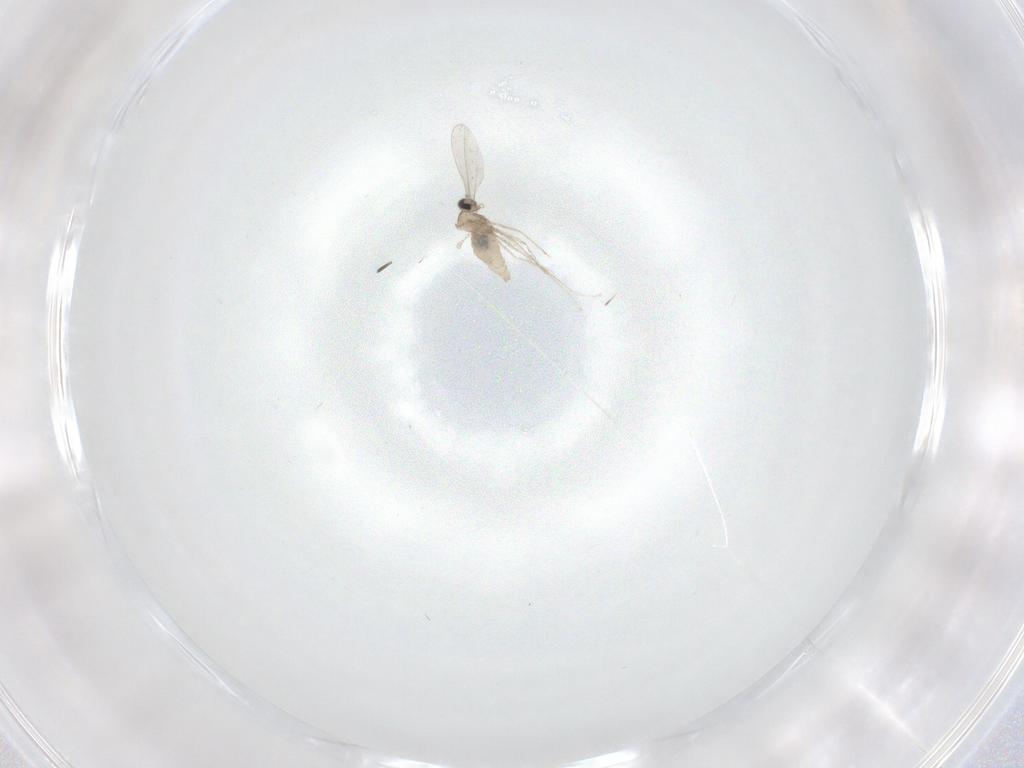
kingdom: Animalia
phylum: Arthropoda
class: Insecta
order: Diptera
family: Cecidomyiidae
